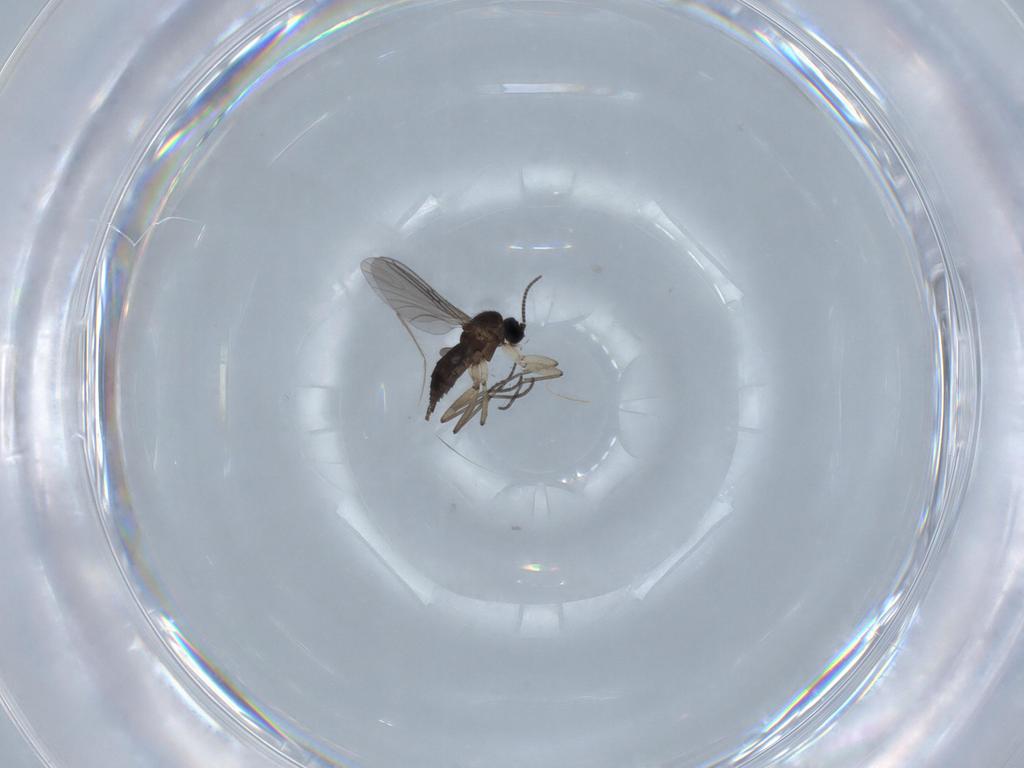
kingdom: Animalia
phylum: Arthropoda
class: Insecta
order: Diptera
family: Sciaridae
